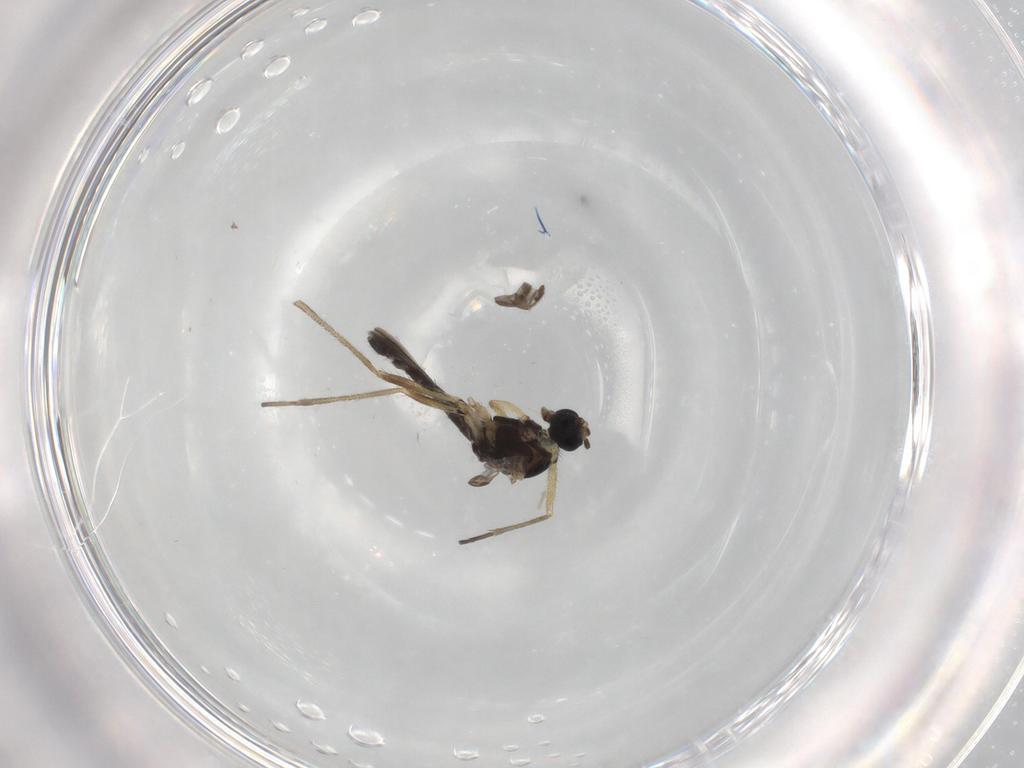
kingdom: Animalia
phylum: Arthropoda
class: Insecta
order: Diptera
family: Sciaridae
